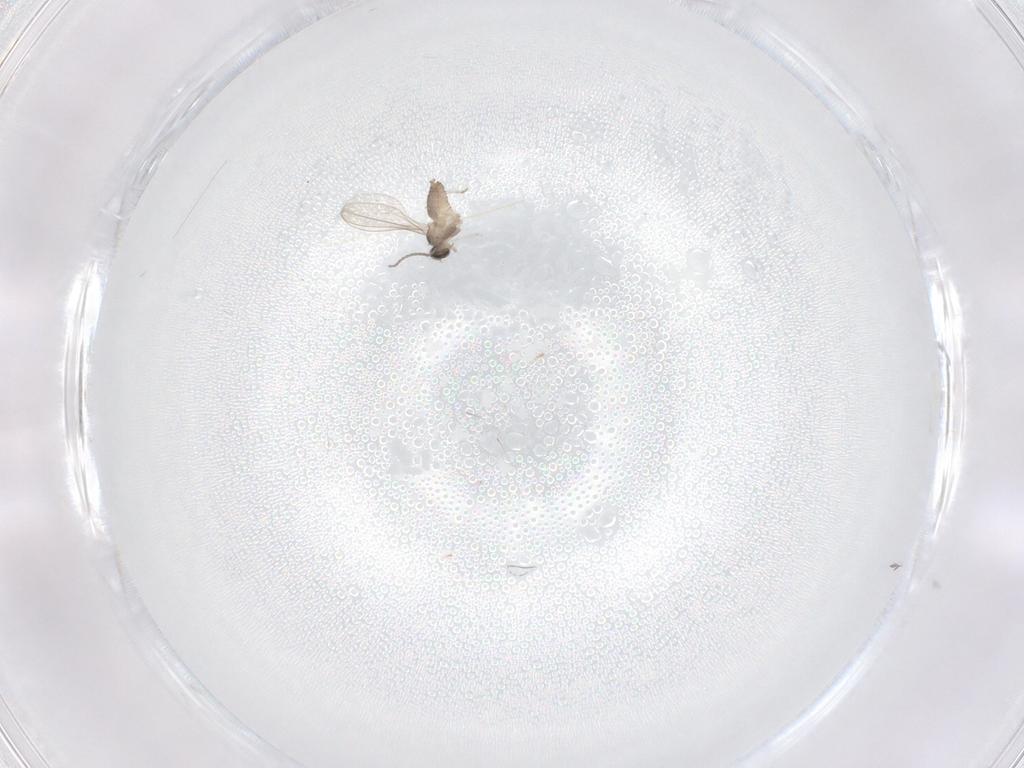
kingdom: Animalia
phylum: Arthropoda
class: Insecta
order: Diptera
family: Cecidomyiidae
